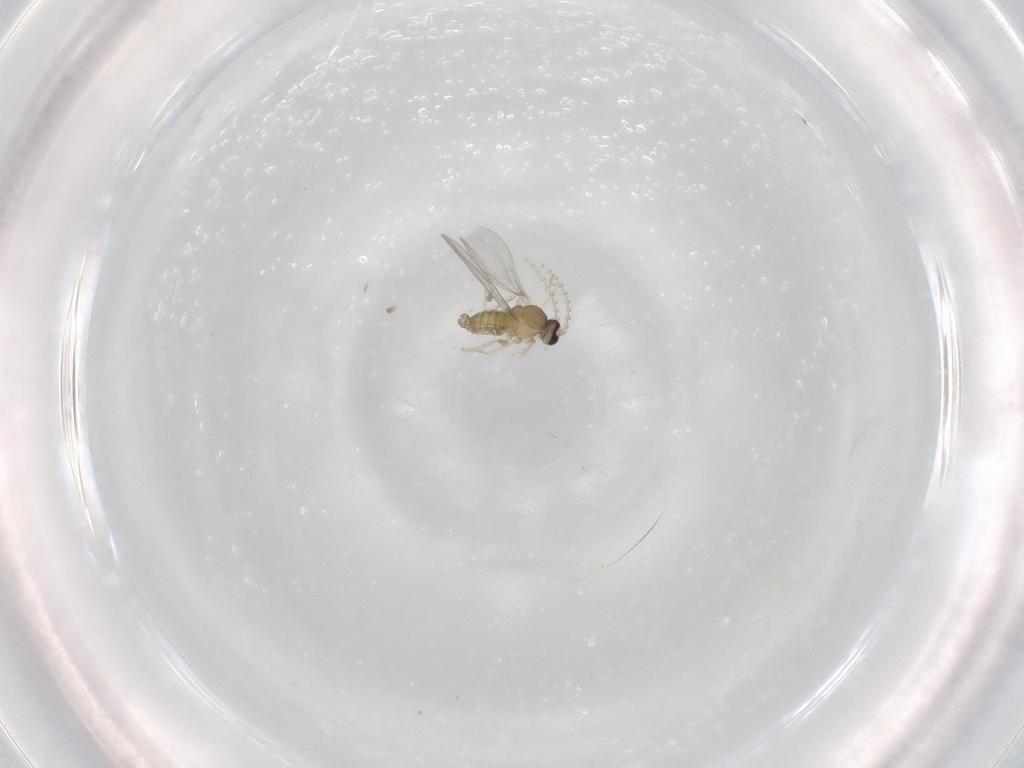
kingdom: Animalia
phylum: Arthropoda
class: Insecta
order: Diptera
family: Cecidomyiidae
